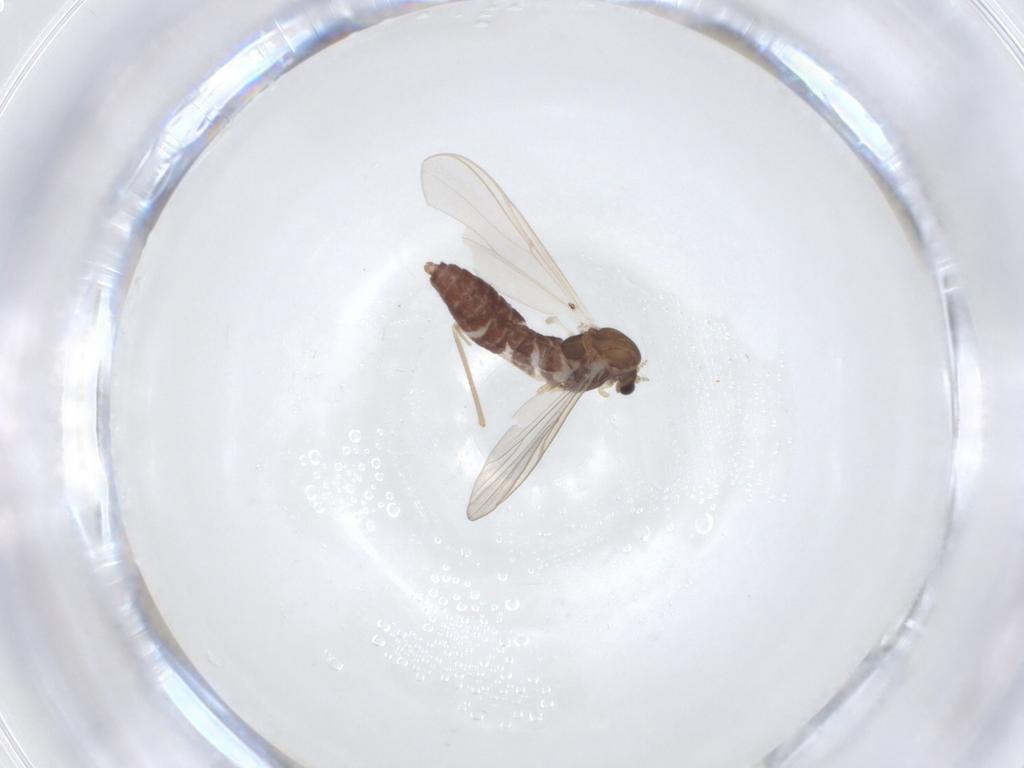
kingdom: Animalia
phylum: Arthropoda
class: Insecta
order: Diptera
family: Chironomidae
